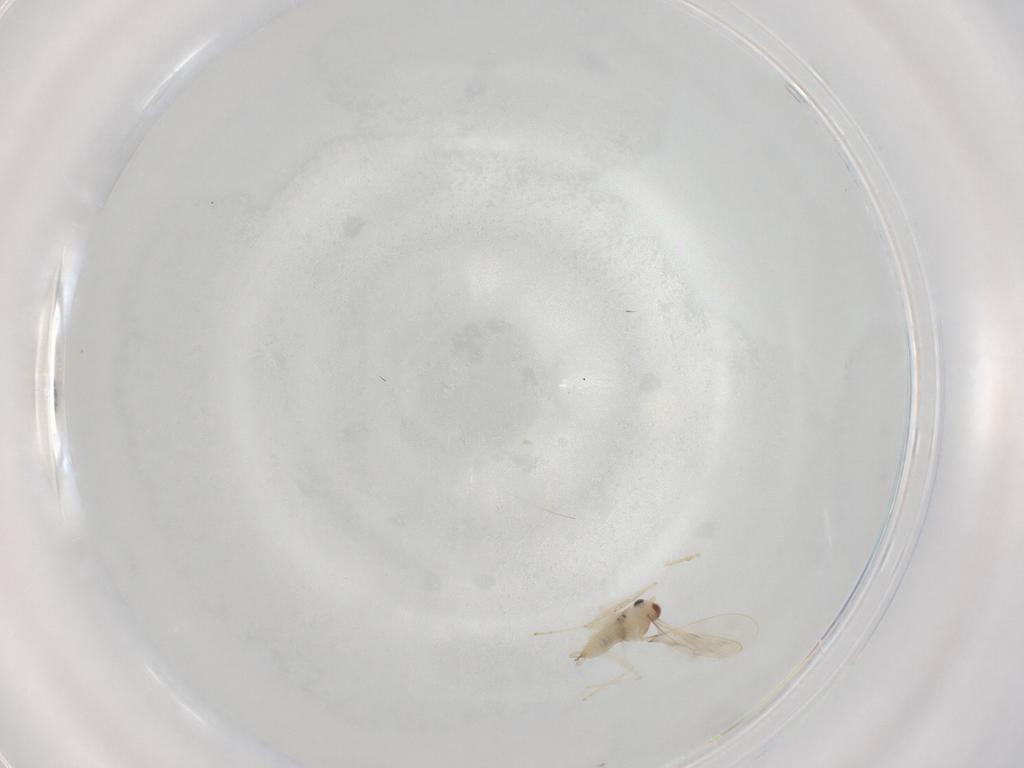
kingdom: Animalia
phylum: Arthropoda
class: Insecta
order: Diptera
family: Cecidomyiidae
